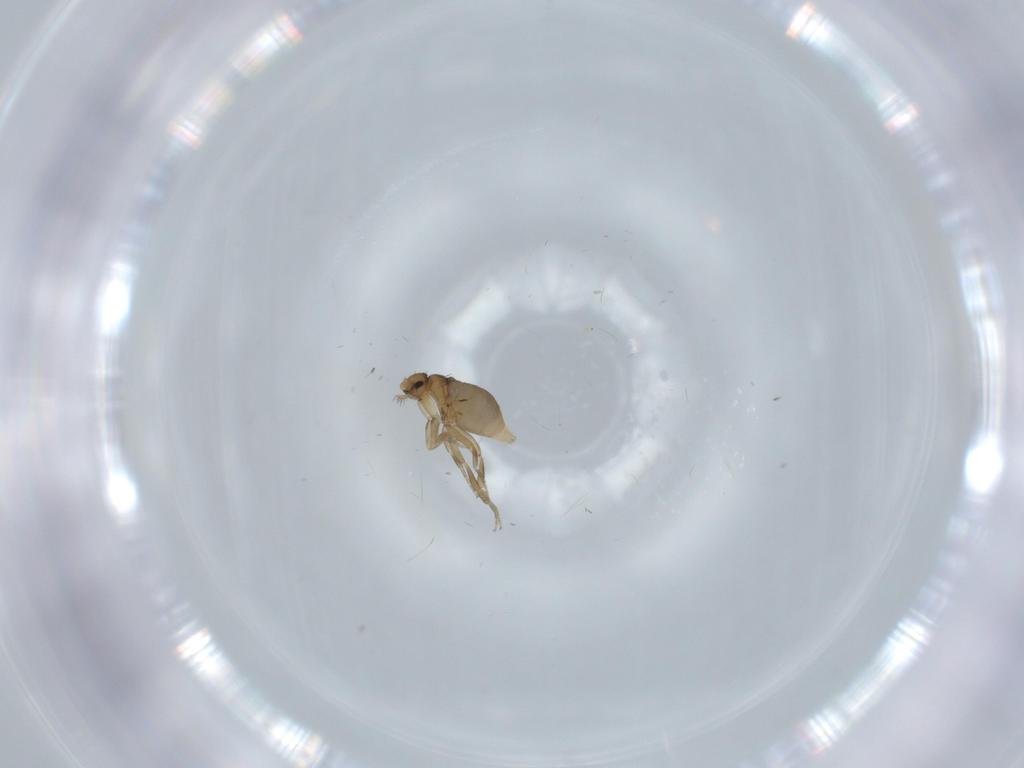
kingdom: Animalia
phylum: Arthropoda
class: Insecta
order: Diptera
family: Phoridae
